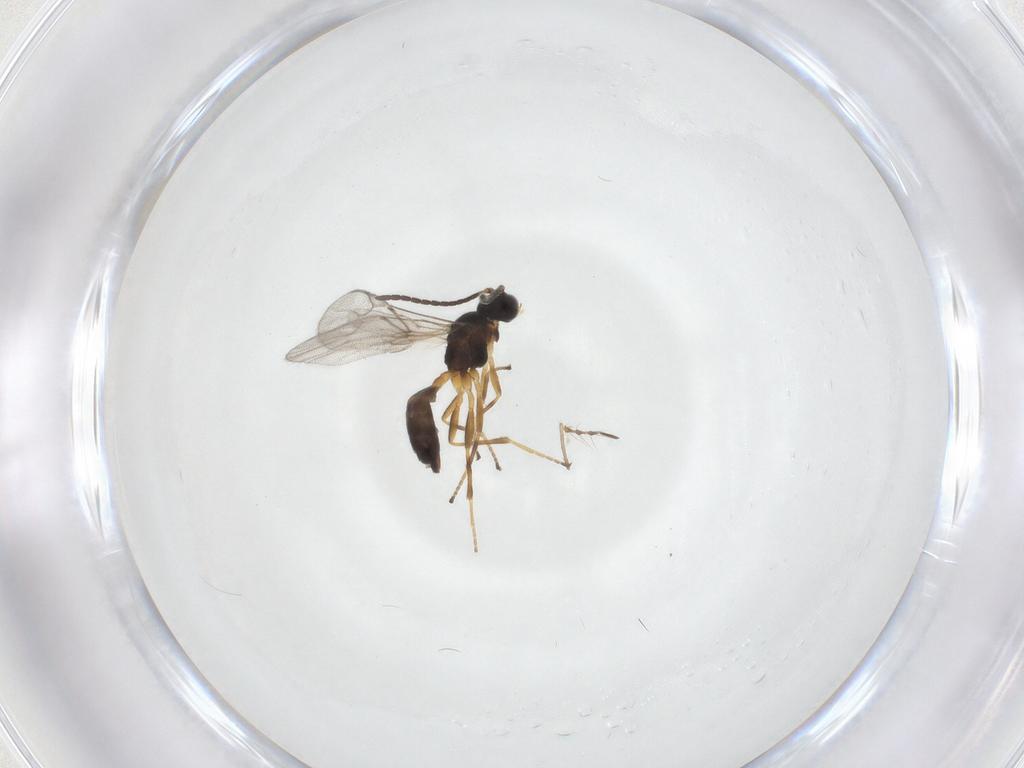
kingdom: Animalia
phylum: Arthropoda
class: Insecta
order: Hymenoptera
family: Braconidae
